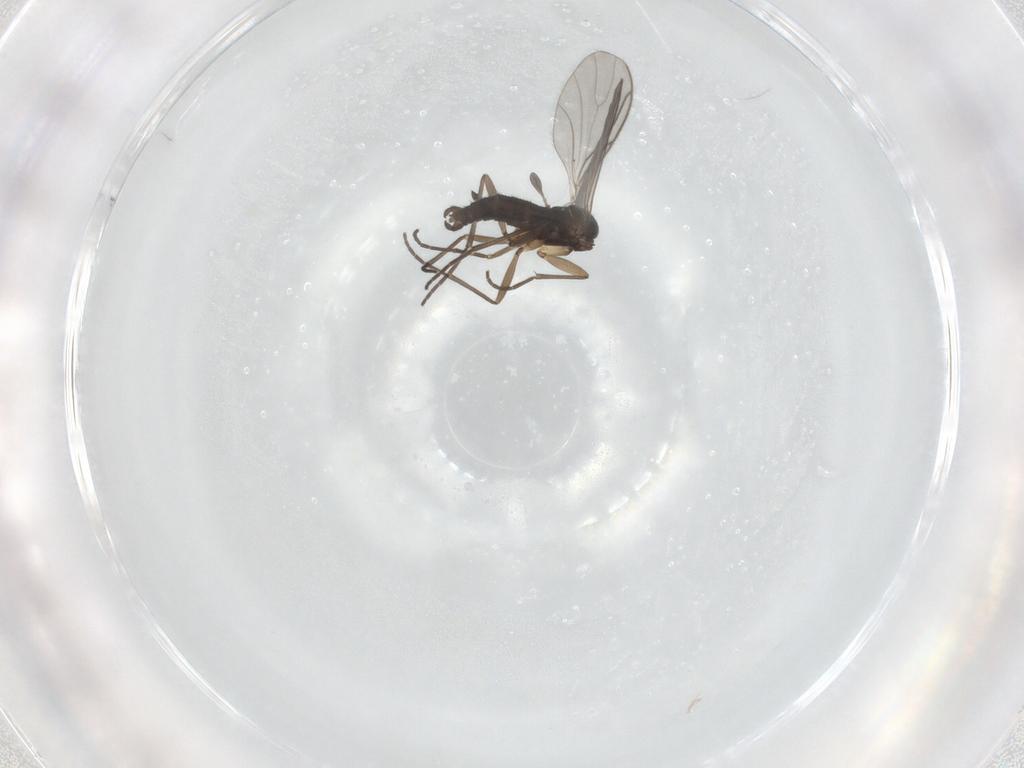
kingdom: Animalia
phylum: Arthropoda
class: Insecta
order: Diptera
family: Sciaridae
